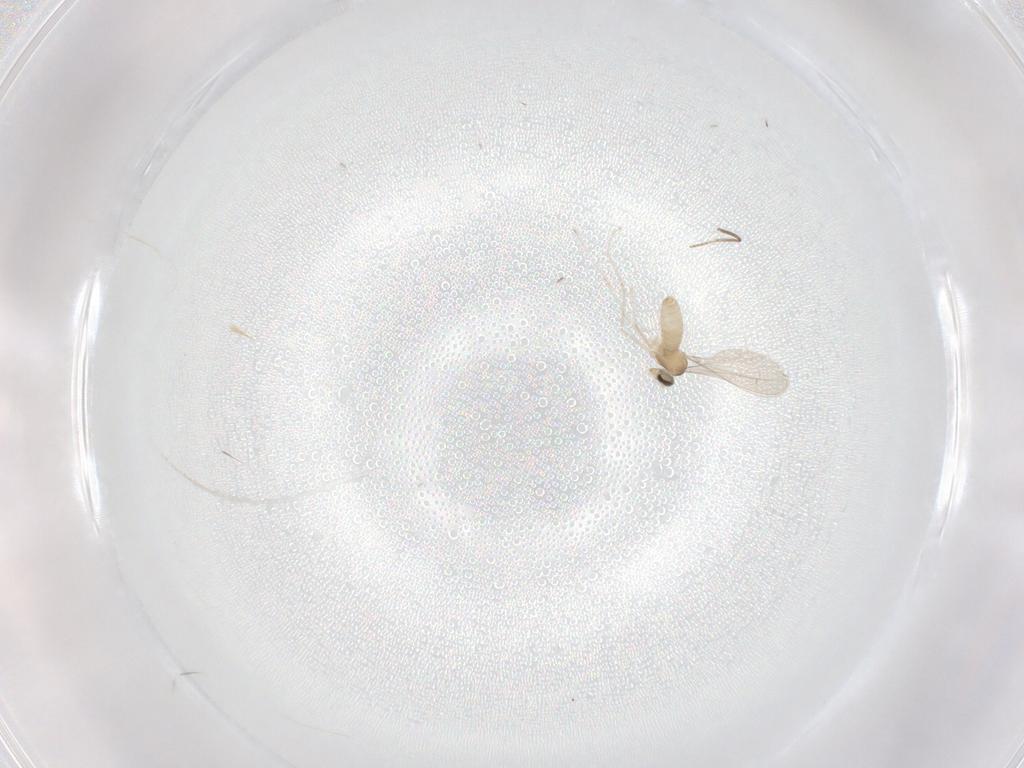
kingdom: Animalia
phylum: Arthropoda
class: Insecta
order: Diptera
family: Ceratopogonidae
